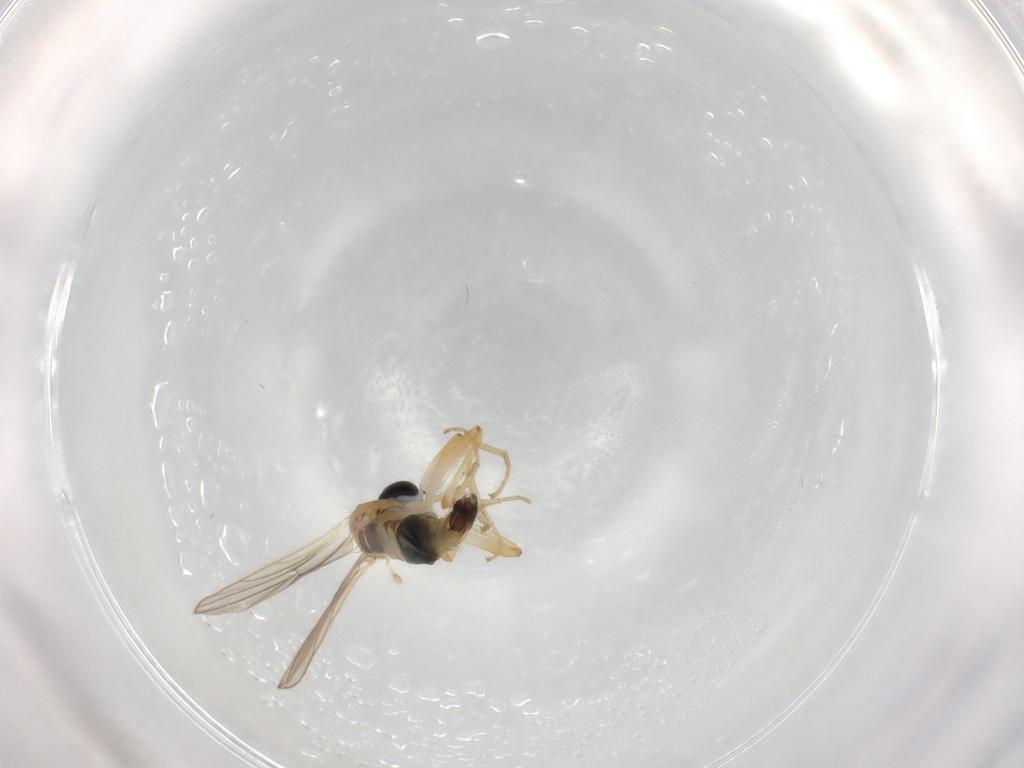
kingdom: Animalia
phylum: Arthropoda
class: Insecta
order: Diptera
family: Hybotidae
